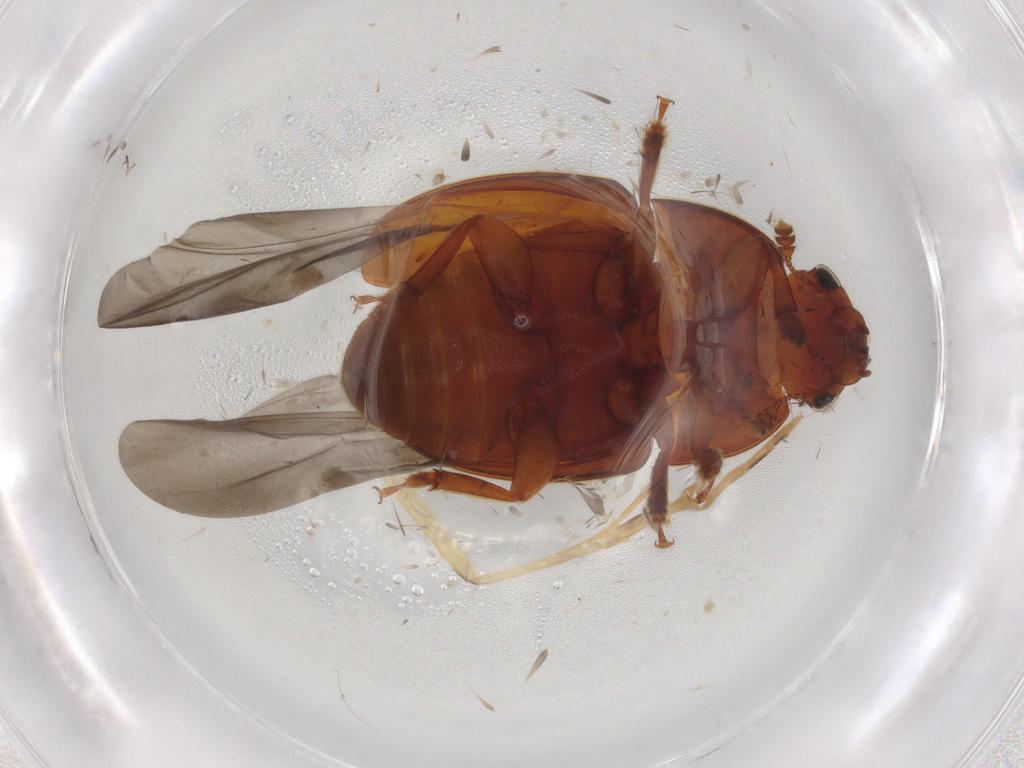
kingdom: Animalia
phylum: Arthropoda
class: Insecta
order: Coleoptera
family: Nitidulidae
